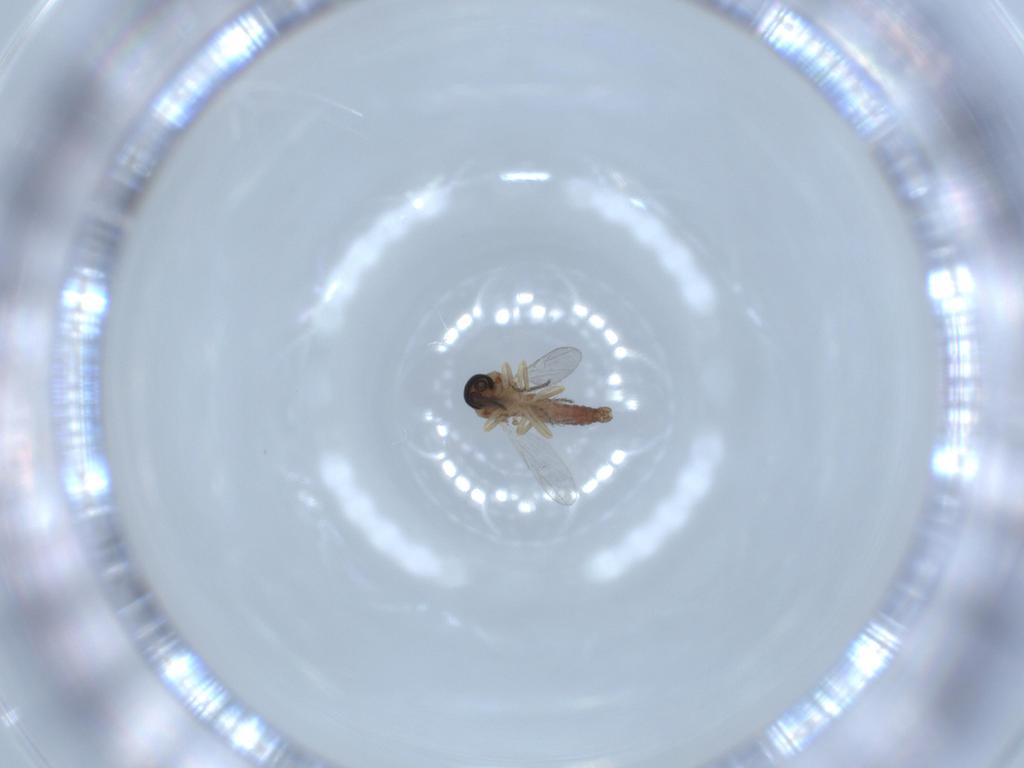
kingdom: Animalia
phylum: Arthropoda
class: Insecta
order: Diptera
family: Ceratopogonidae
